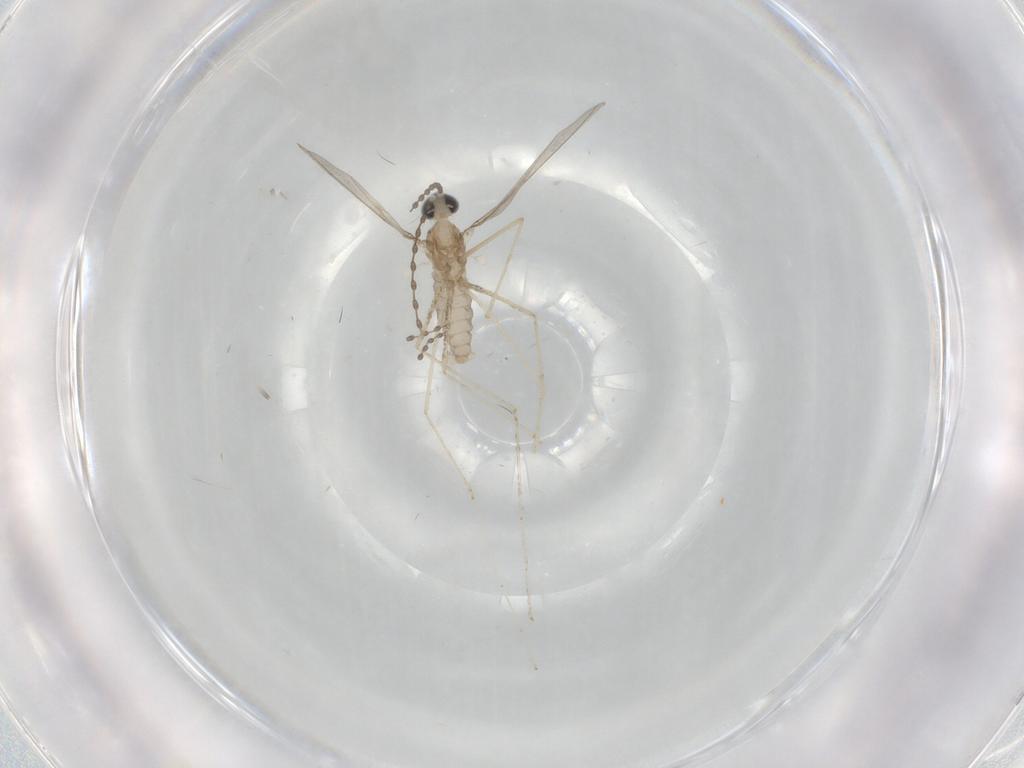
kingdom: Animalia
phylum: Arthropoda
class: Insecta
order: Diptera
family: Cecidomyiidae
